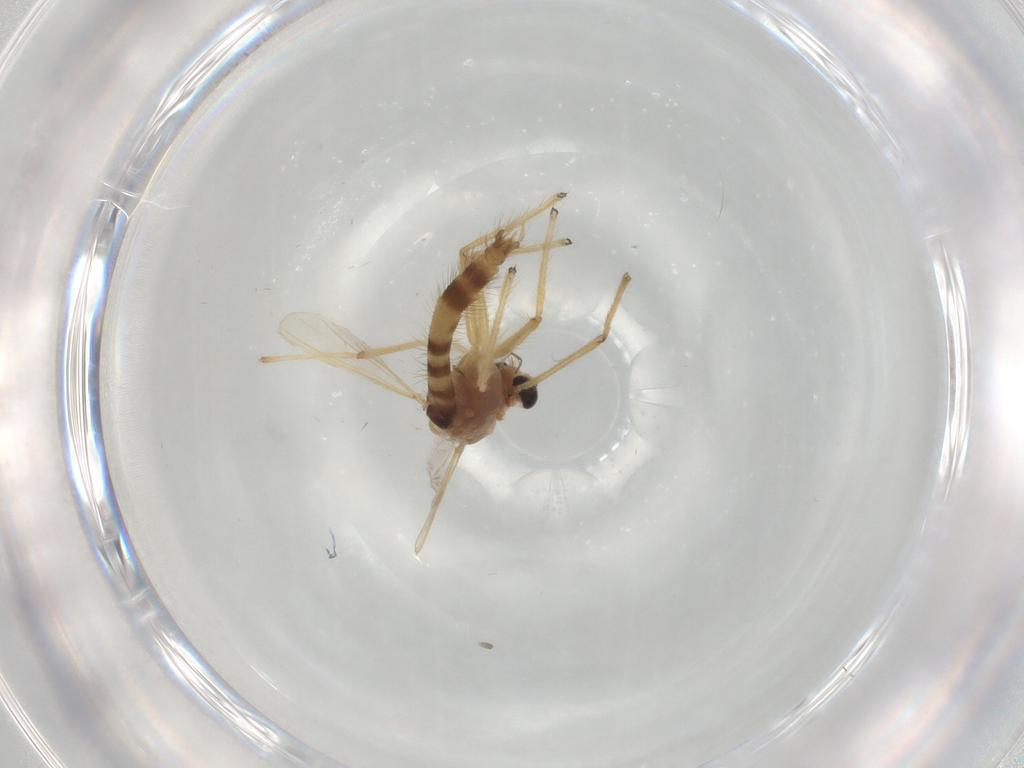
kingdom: Animalia
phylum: Arthropoda
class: Insecta
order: Diptera
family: Chironomidae
